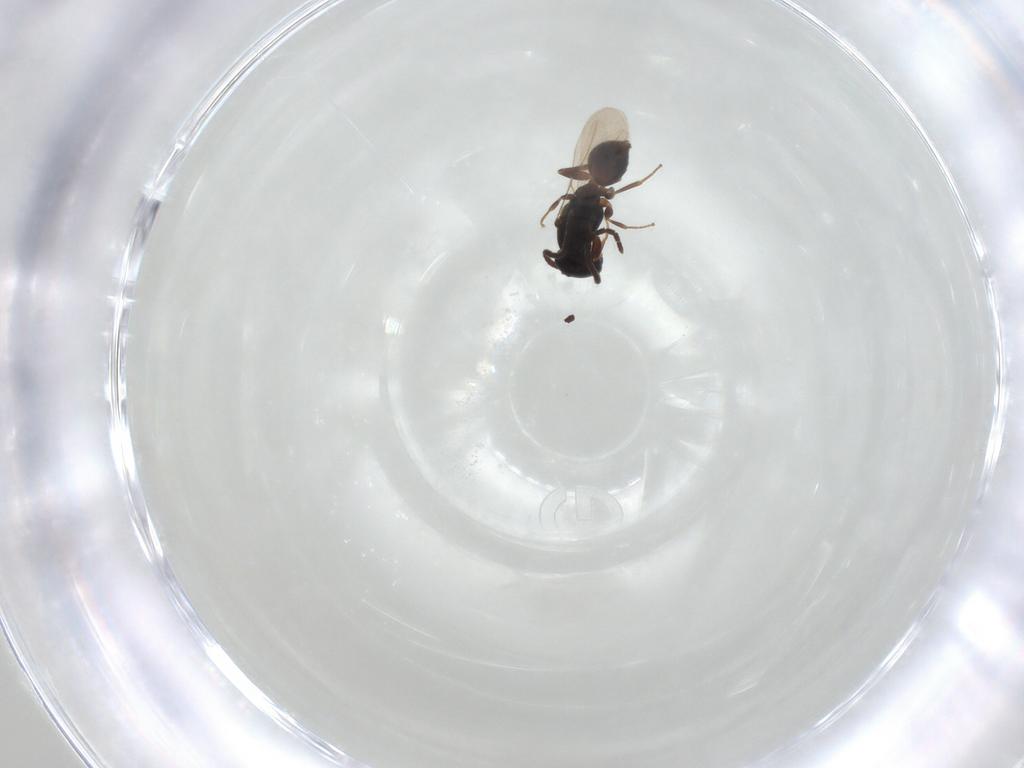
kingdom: Animalia
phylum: Arthropoda
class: Insecta
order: Hymenoptera
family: Bethylidae
